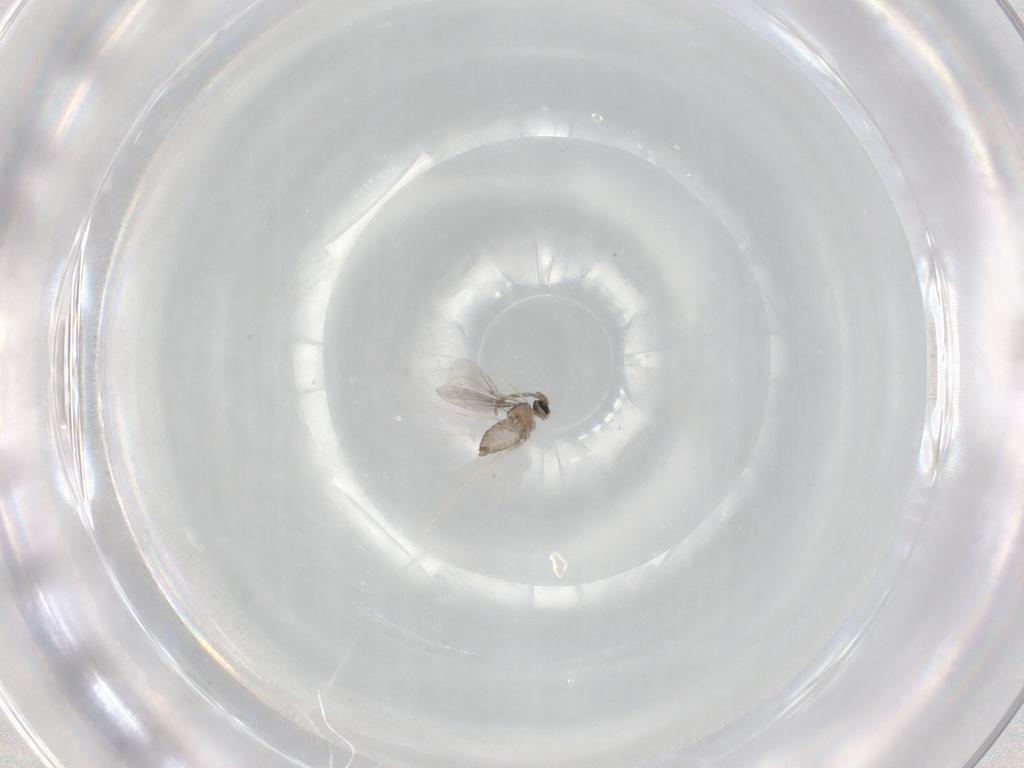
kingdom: Animalia
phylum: Arthropoda
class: Insecta
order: Diptera
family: Cecidomyiidae
